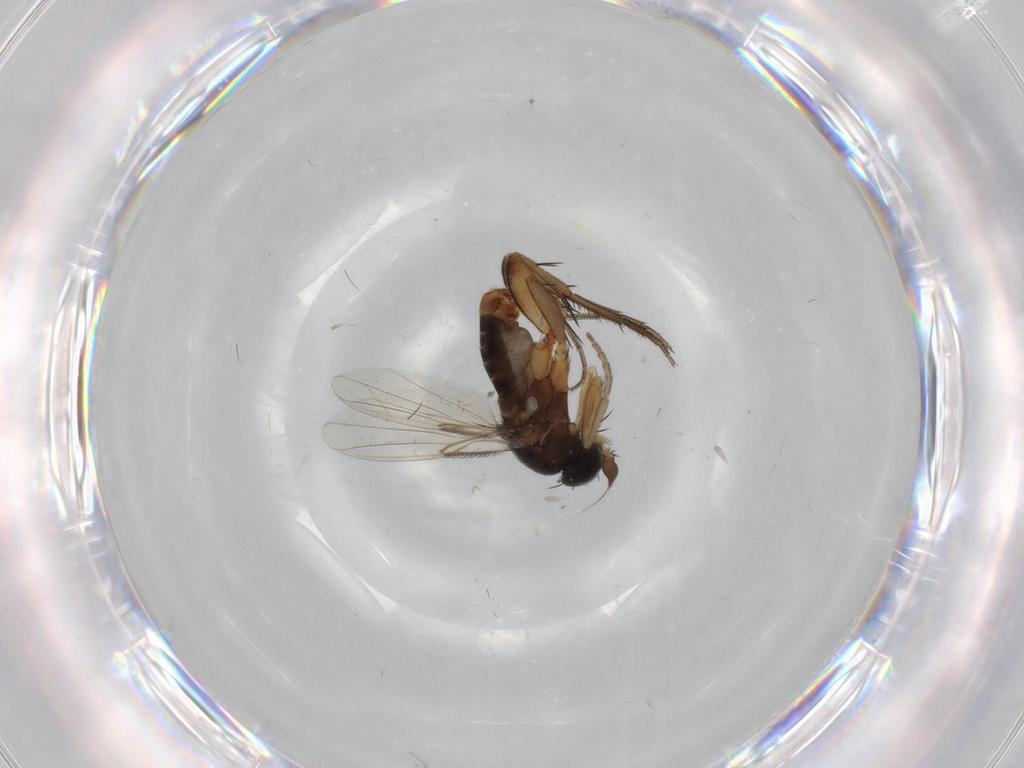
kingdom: Animalia
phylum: Arthropoda
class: Insecta
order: Diptera
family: Phoridae
